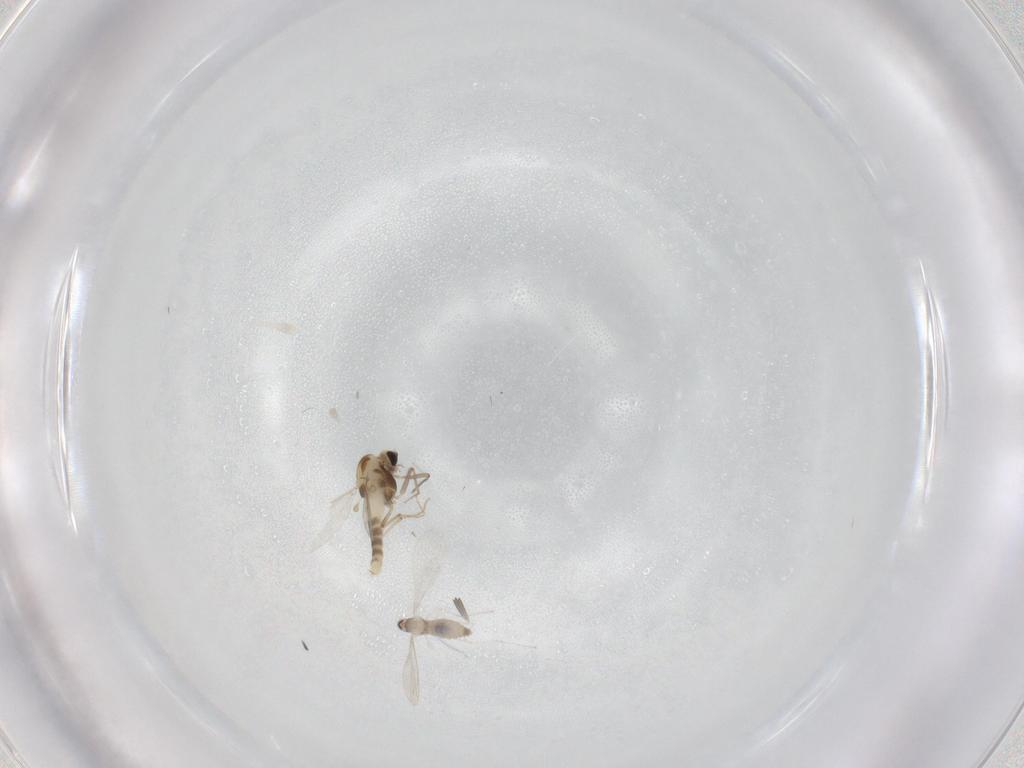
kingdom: Animalia
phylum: Arthropoda
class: Insecta
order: Diptera
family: Chironomidae
